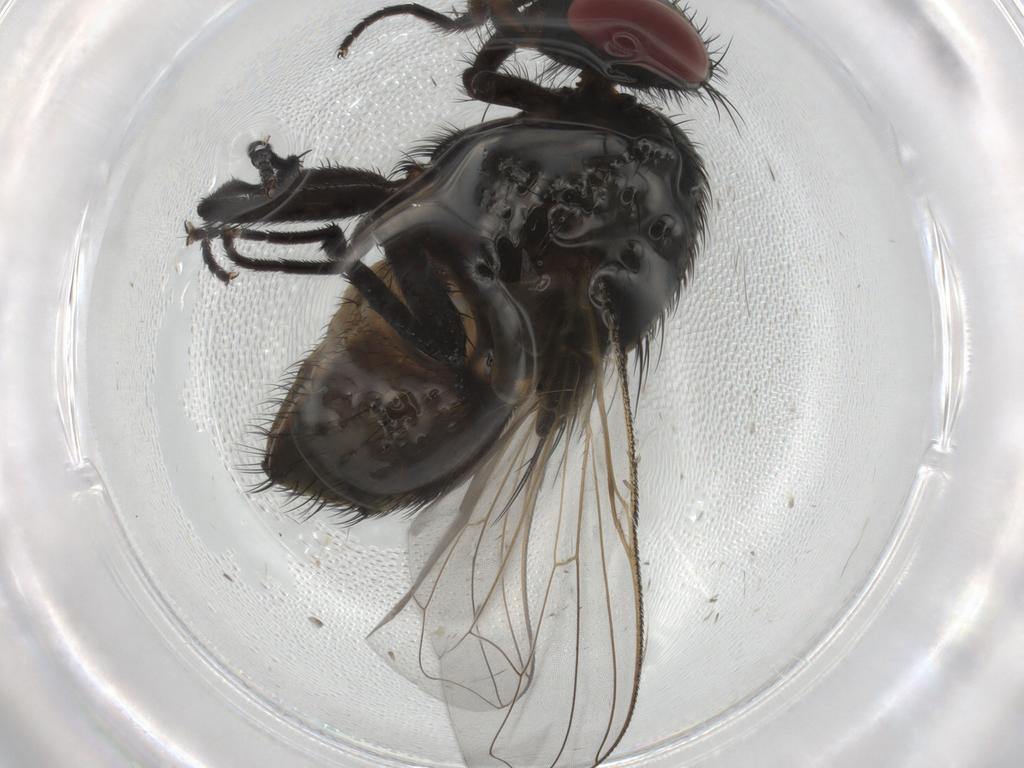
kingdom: Animalia
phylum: Arthropoda
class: Insecta
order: Diptera
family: Muscidae
